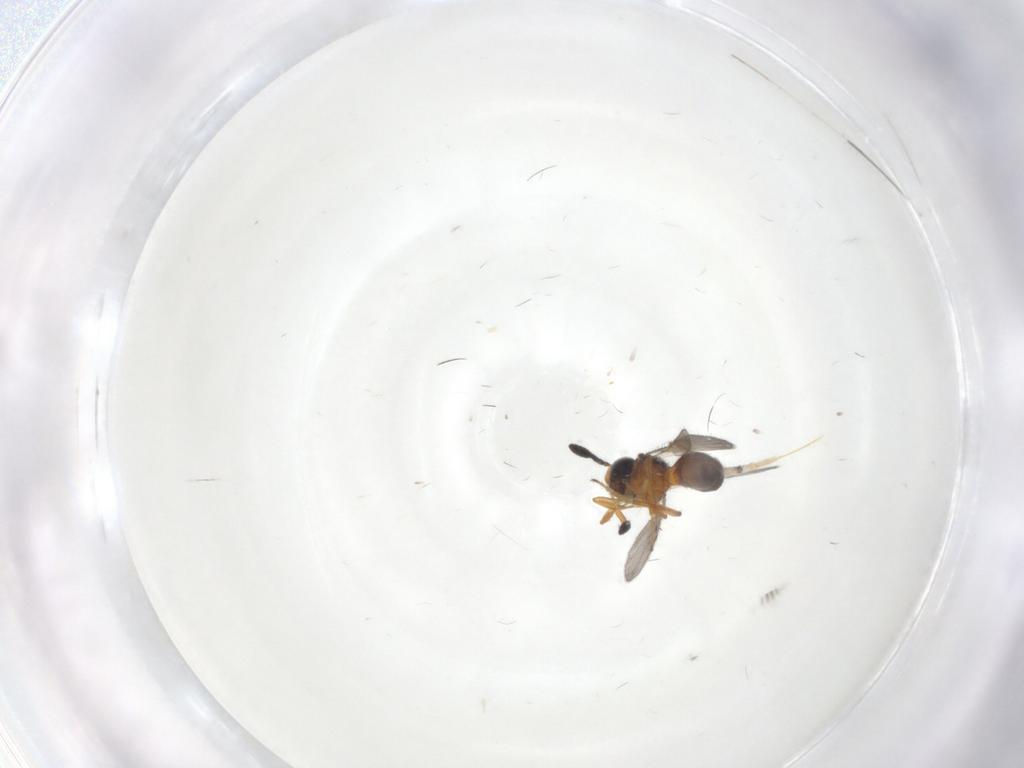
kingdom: Animalia
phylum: Arthropoda
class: Insecta
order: Hymenoptera
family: Scelionidae
